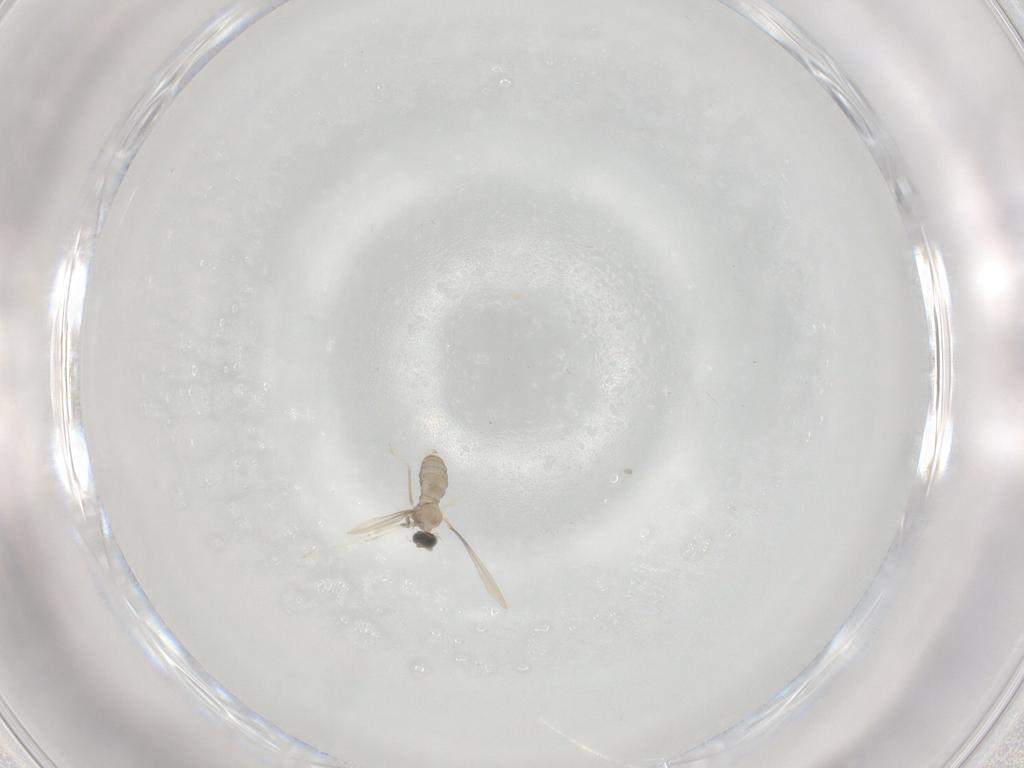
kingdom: Animalia
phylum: Arthropoda
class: Insecta
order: Diptera
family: Cecidomyiidae
